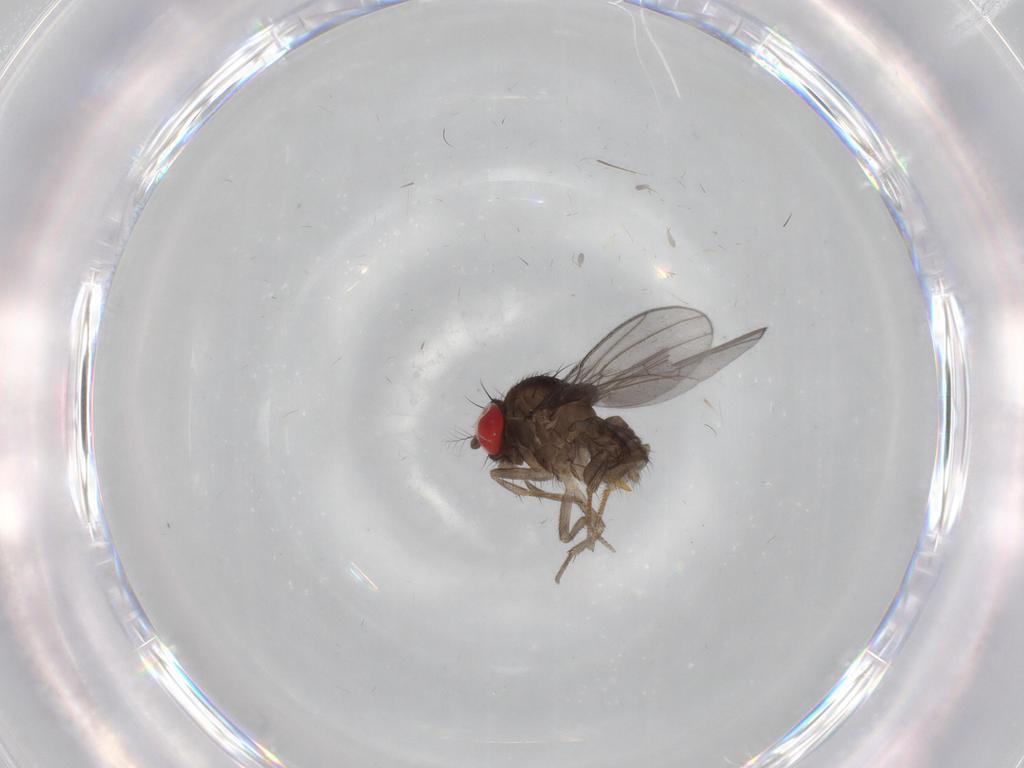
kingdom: Animalia
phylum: Arthropoda
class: Insecta
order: Diptera
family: Drosophilidae
